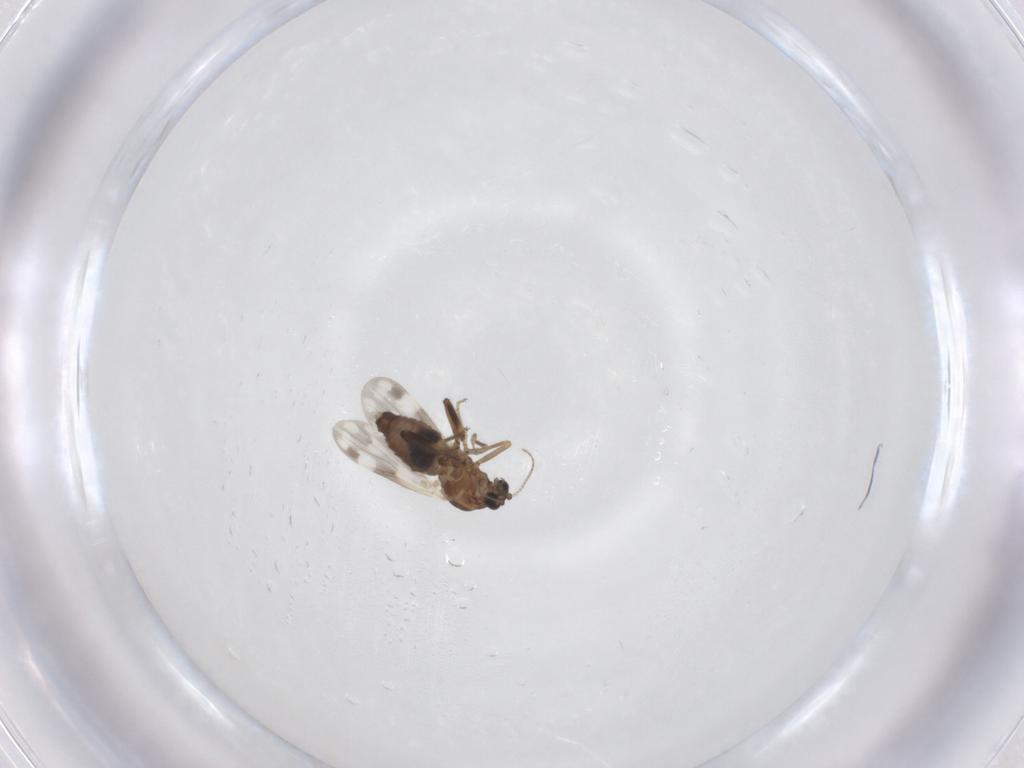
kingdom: Animalia
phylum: Arthropoda
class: Insecta
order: Diptera
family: Ceratopogonidae
